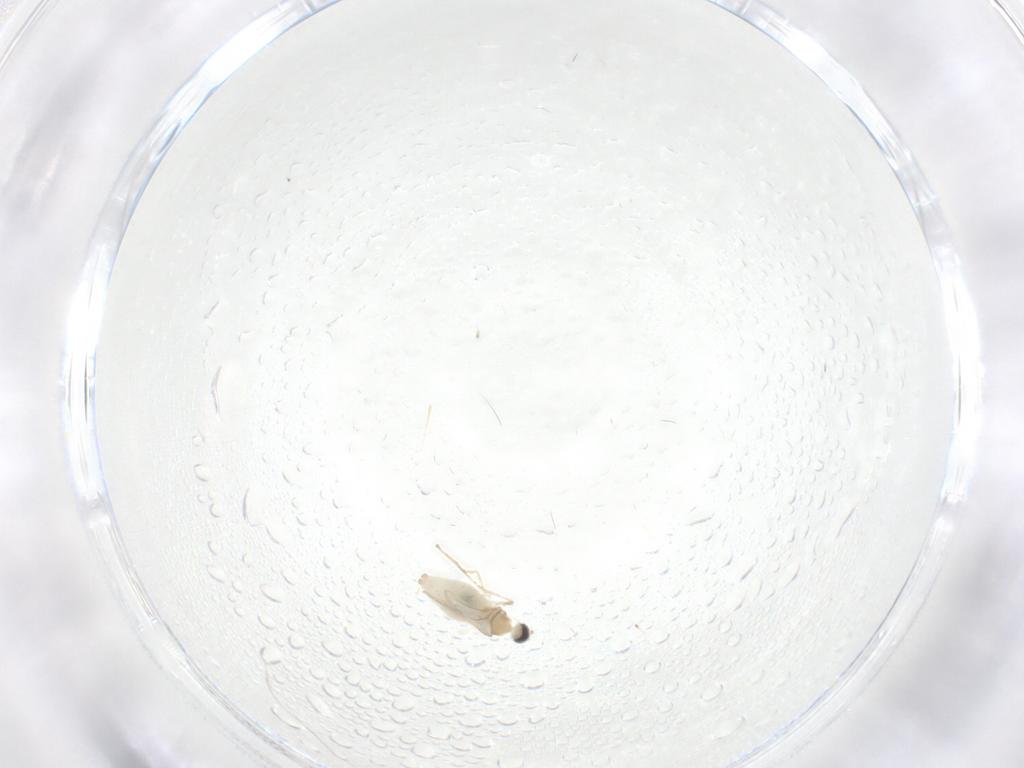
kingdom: Animalia
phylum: Arthropoda
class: Insecta
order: Diptera
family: Cecidomyiidae
